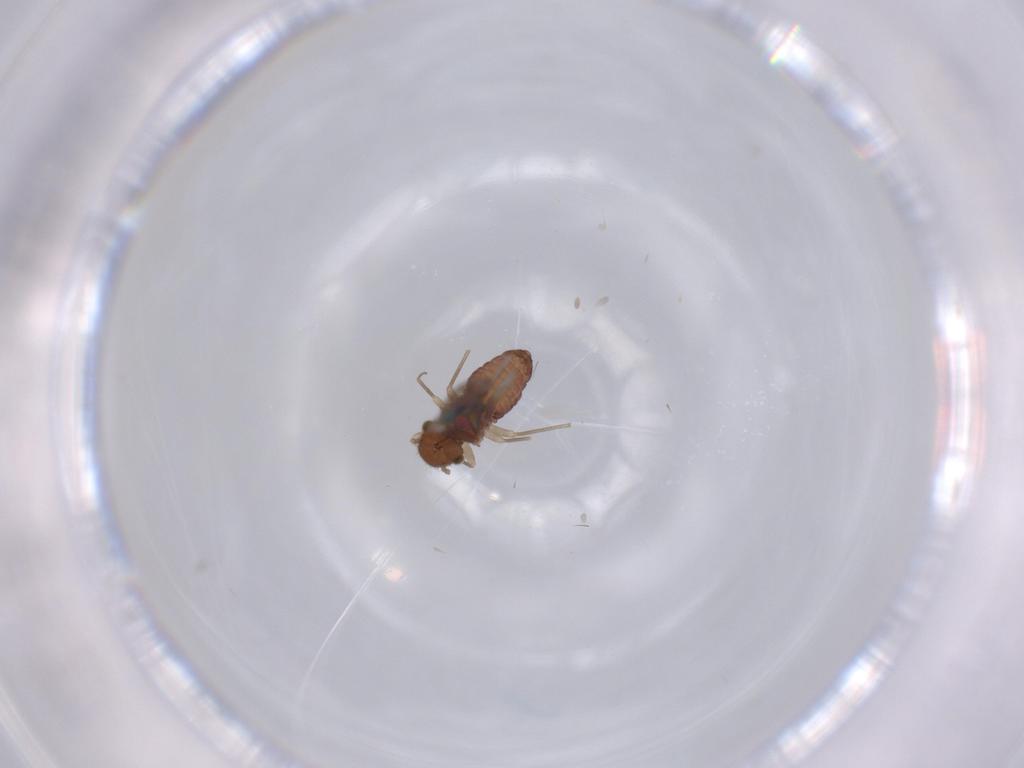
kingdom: Animalia
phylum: Arthropoda
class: Insecta
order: Psocodea
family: Ectopsocidae
